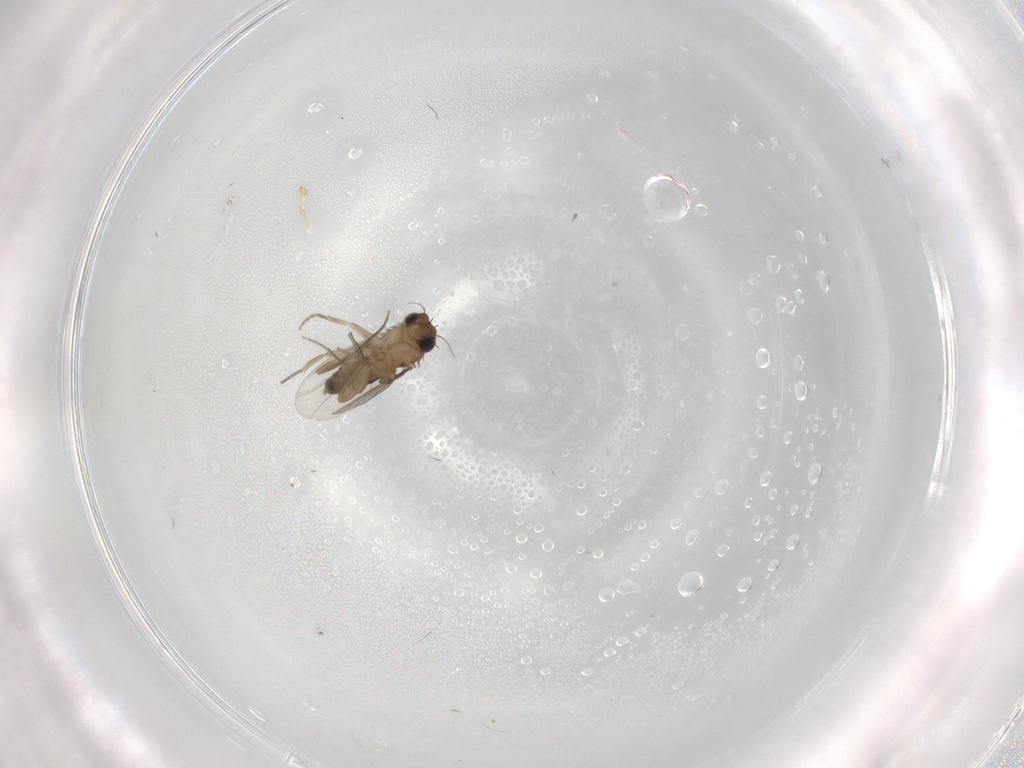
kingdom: Animalia
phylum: Arthropoda
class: Insecta
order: Diptera
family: Phoridae
